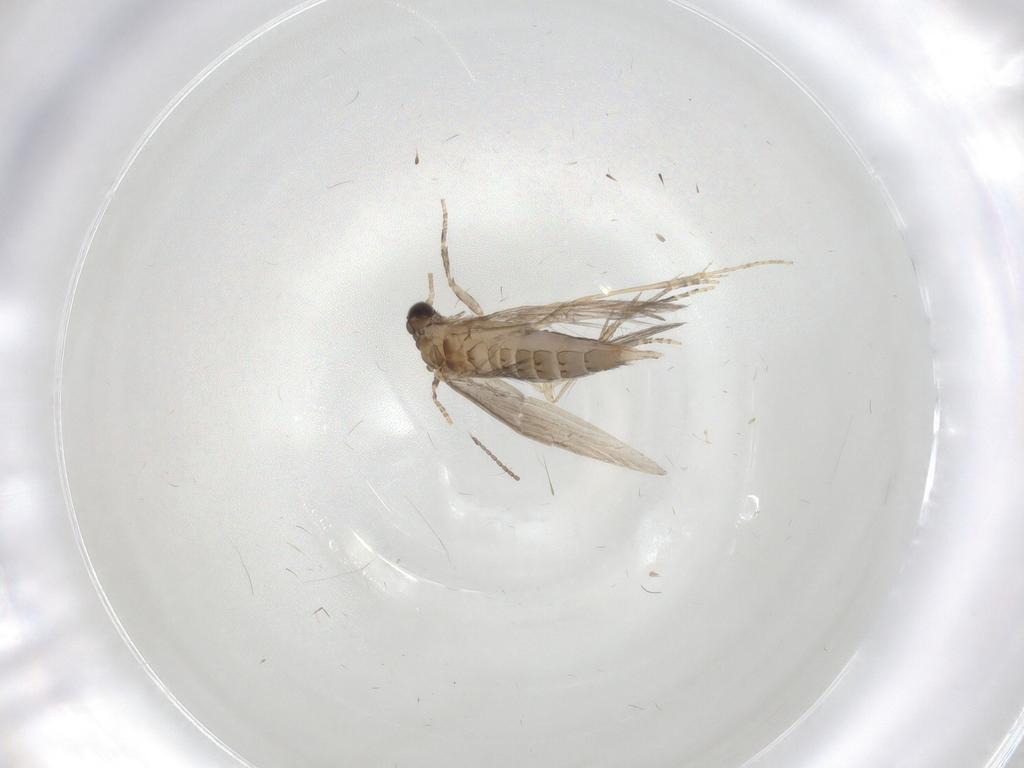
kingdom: Animalia
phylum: Arthropoda
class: Insecta
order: Trichoptera
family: Hydroptilidae
